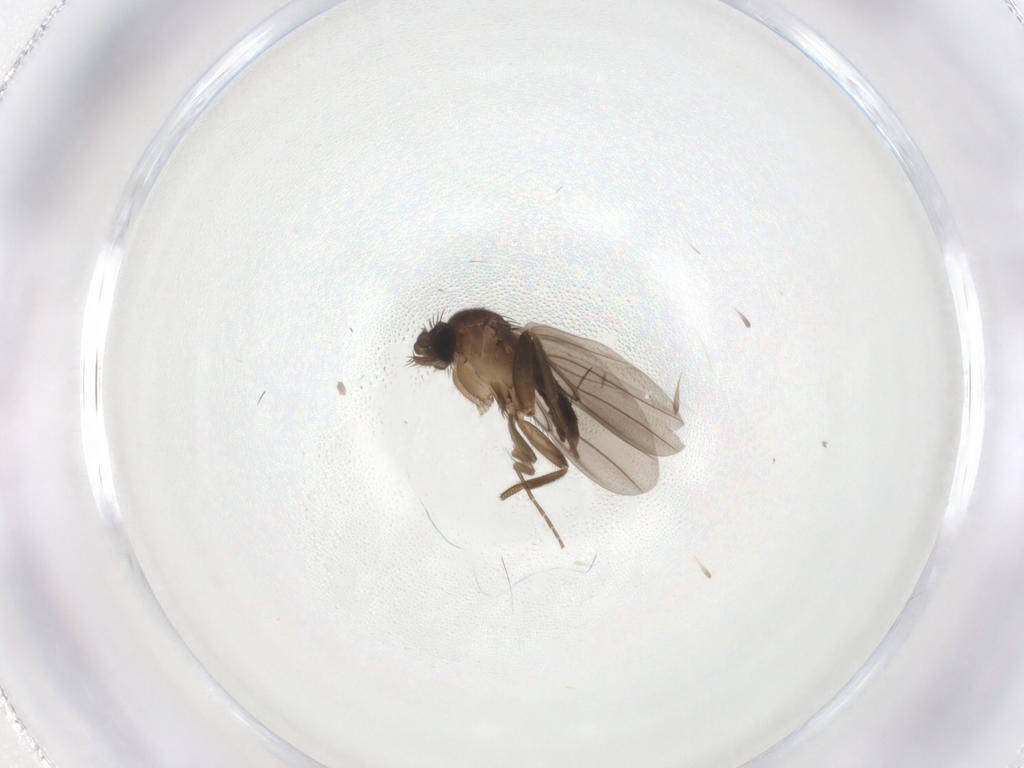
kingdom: Animalia
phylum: Arthropoda
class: Insecta
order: Diptera
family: Phoridae
